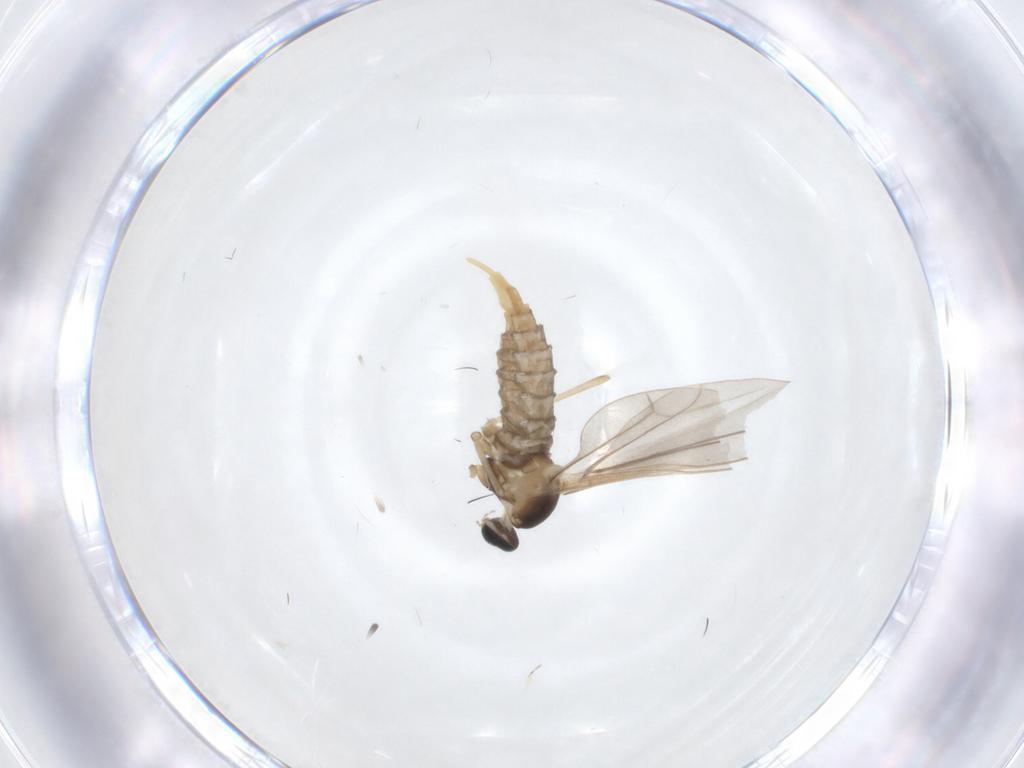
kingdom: Animalia
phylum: Arthropoda
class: Insecta
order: Diptera
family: Cecidomyiidae
